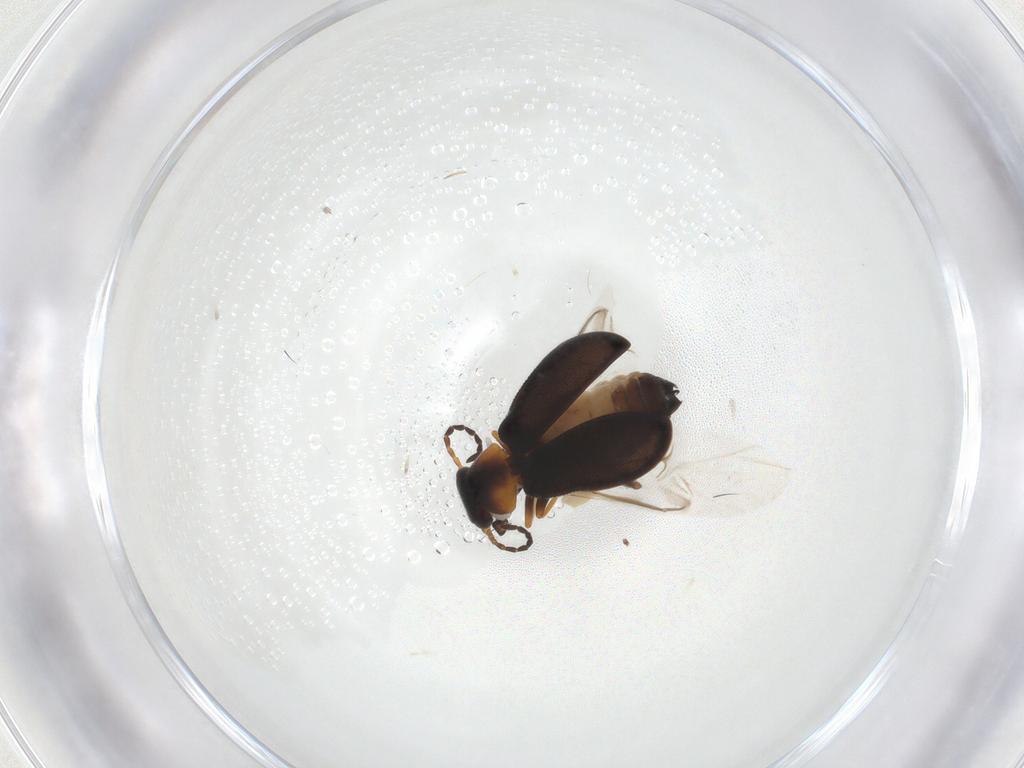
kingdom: Animalia
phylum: Arthropoda
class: Insecta
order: Coleoptera
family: Melyridae
